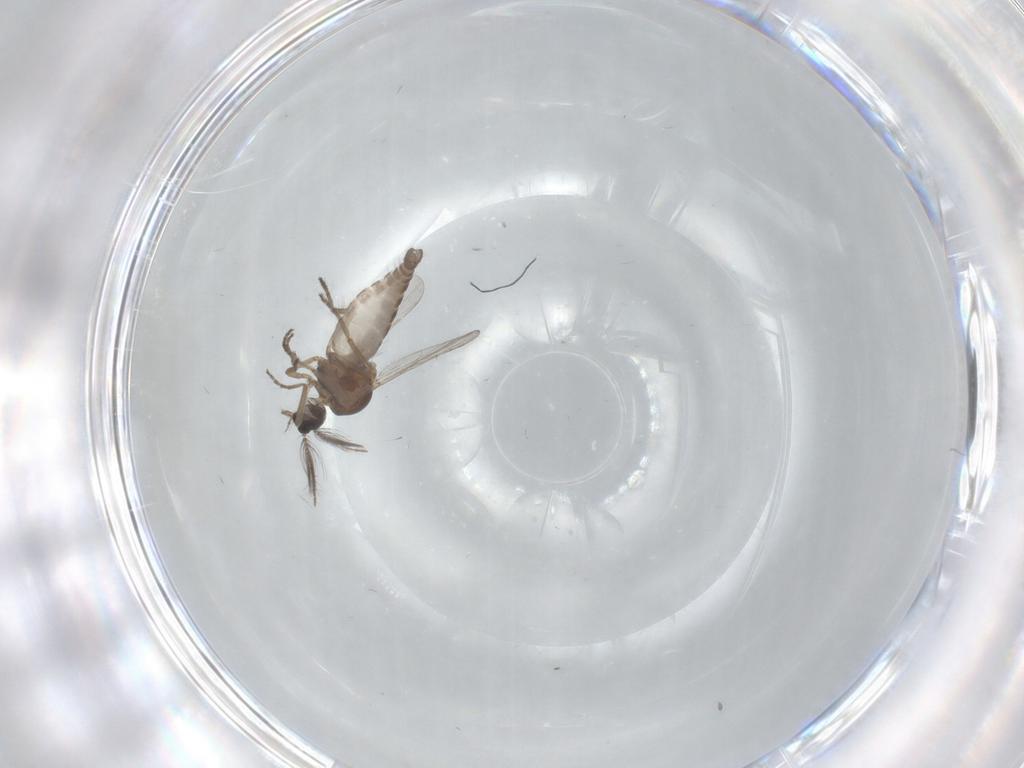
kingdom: Animalia
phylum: Arthropoda
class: Insecta
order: Diptera
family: Ceratopogonidae
